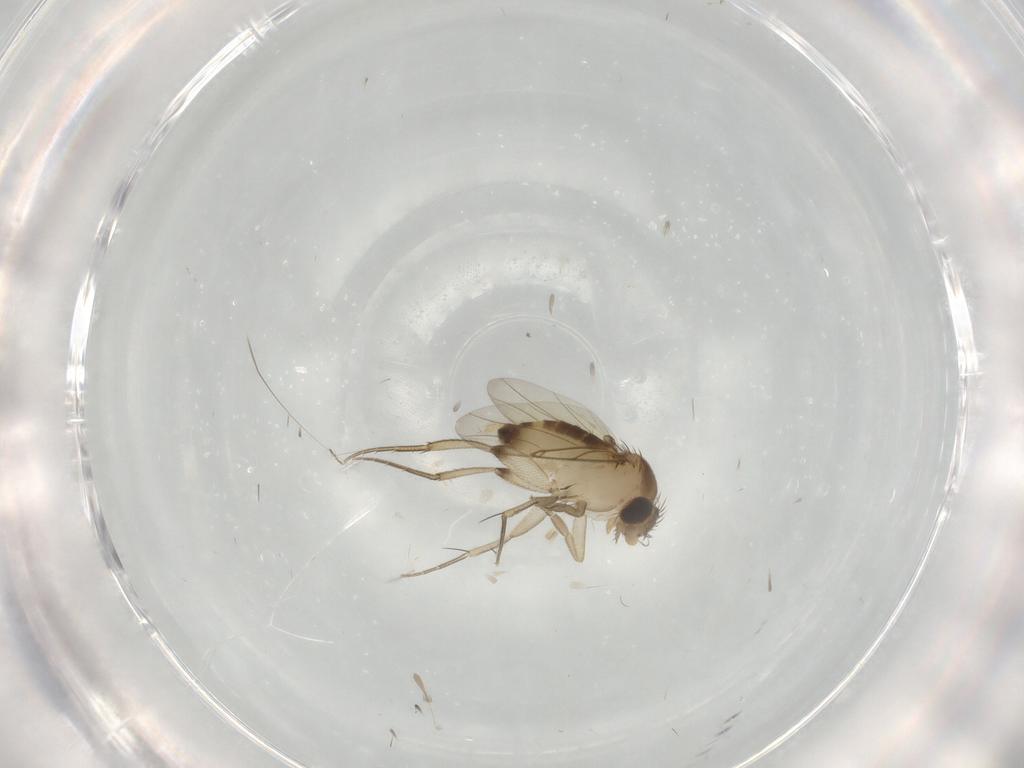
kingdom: Animalia
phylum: Arthropoda
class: Insecta
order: Diptera
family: Phoridae
